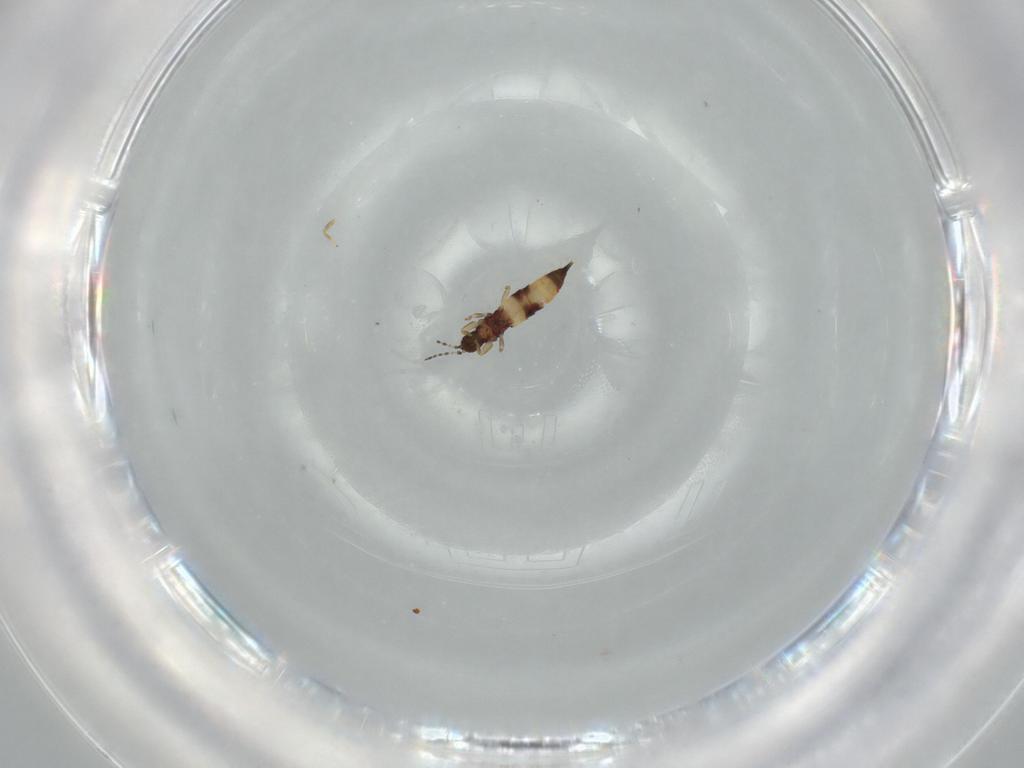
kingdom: Animalia
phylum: Arthropoda
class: Insecta
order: Thysanoptera
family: Phlaeothripidae
